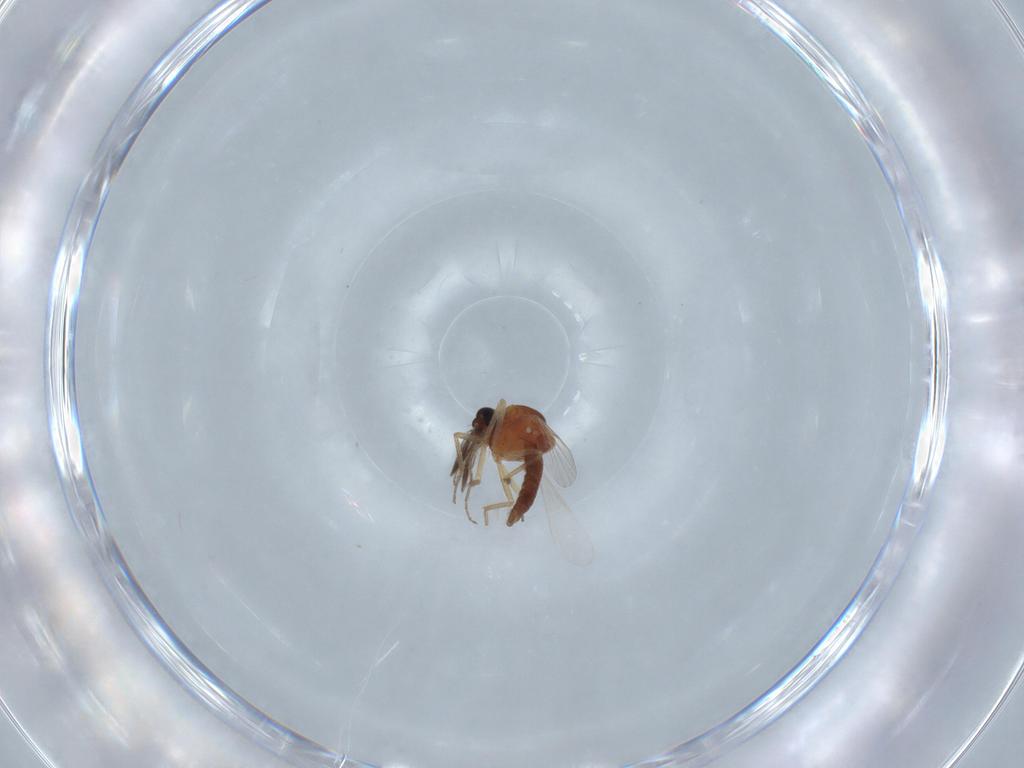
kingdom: Animalia
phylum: Arthropoda
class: Insecta
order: Diptera
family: Ceratopogonidae
